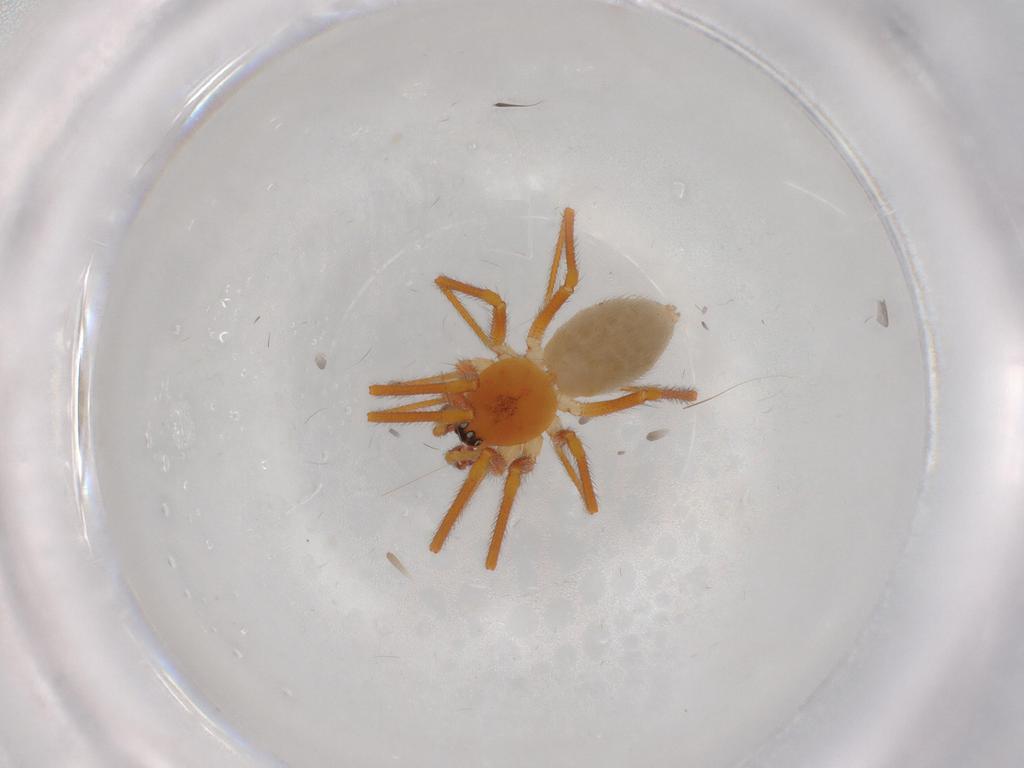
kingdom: Animalia
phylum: Arthropoda
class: Arachnida
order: Araneae
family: Linyphiidae
